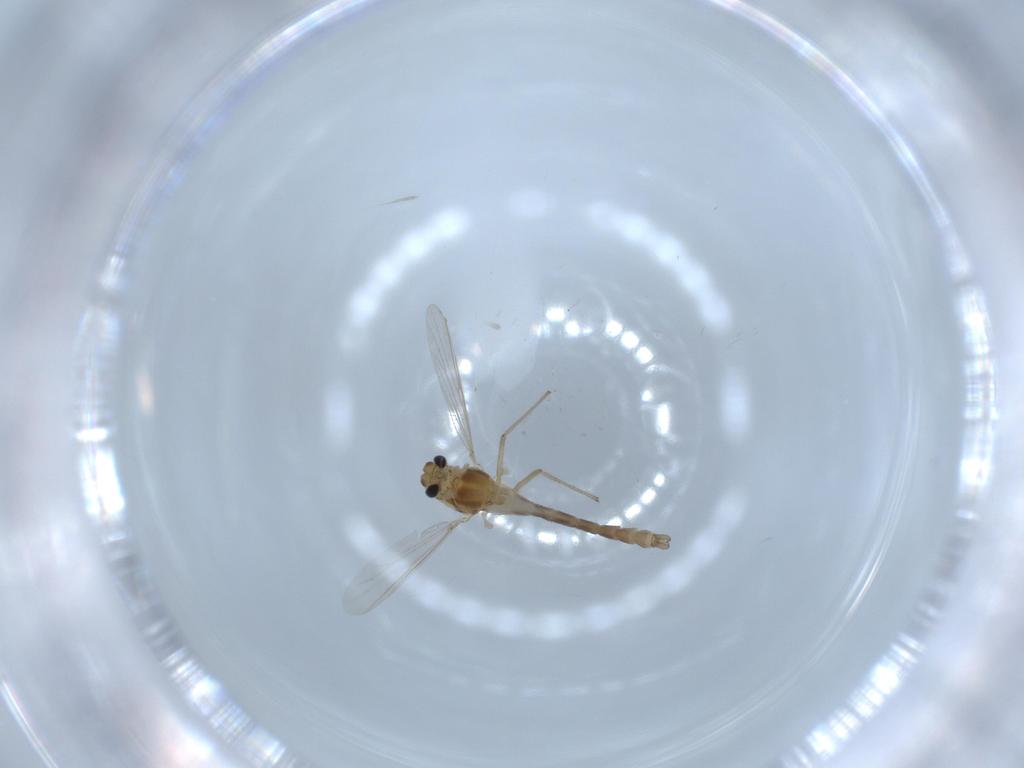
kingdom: Animalia
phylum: Arthropoda
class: Insecta
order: Diptera
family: Chironomidae
